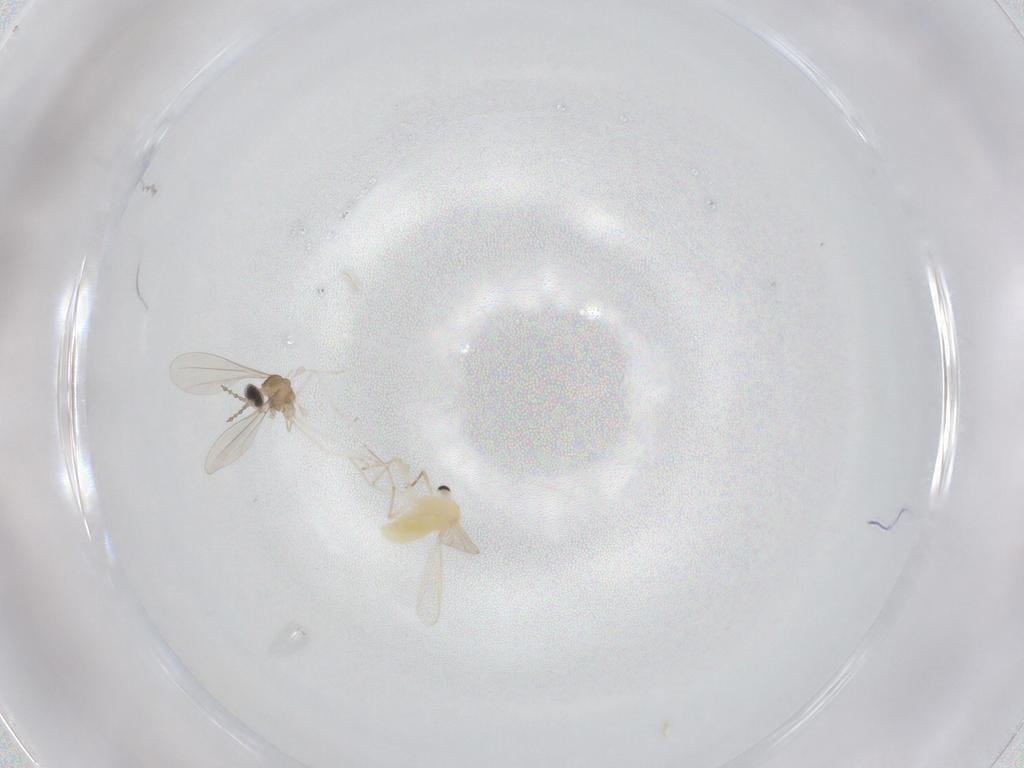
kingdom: Animalia
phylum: Arthropoda
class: Insecta
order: Diptera
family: Chironomidae
